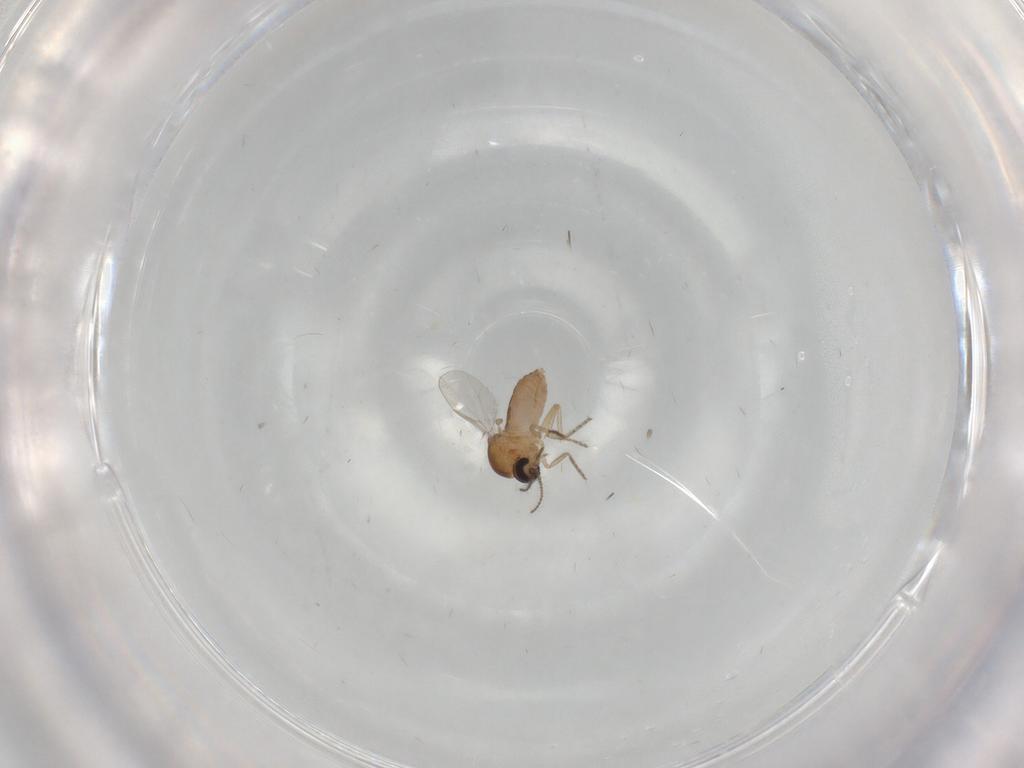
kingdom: Animalia
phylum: Arthropoda
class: Insecta
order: Diptera
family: Ceratopogonidae
